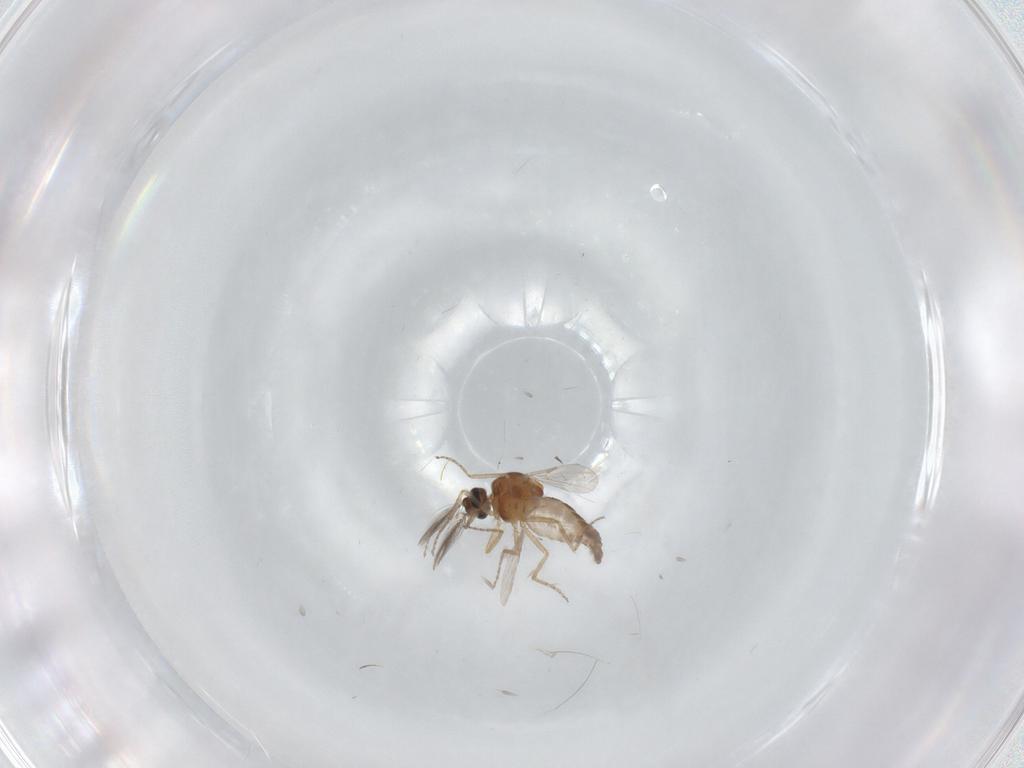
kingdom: Animalia
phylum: Arthropoda
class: Insecta
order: Diptera
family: Ceratopogonidae
